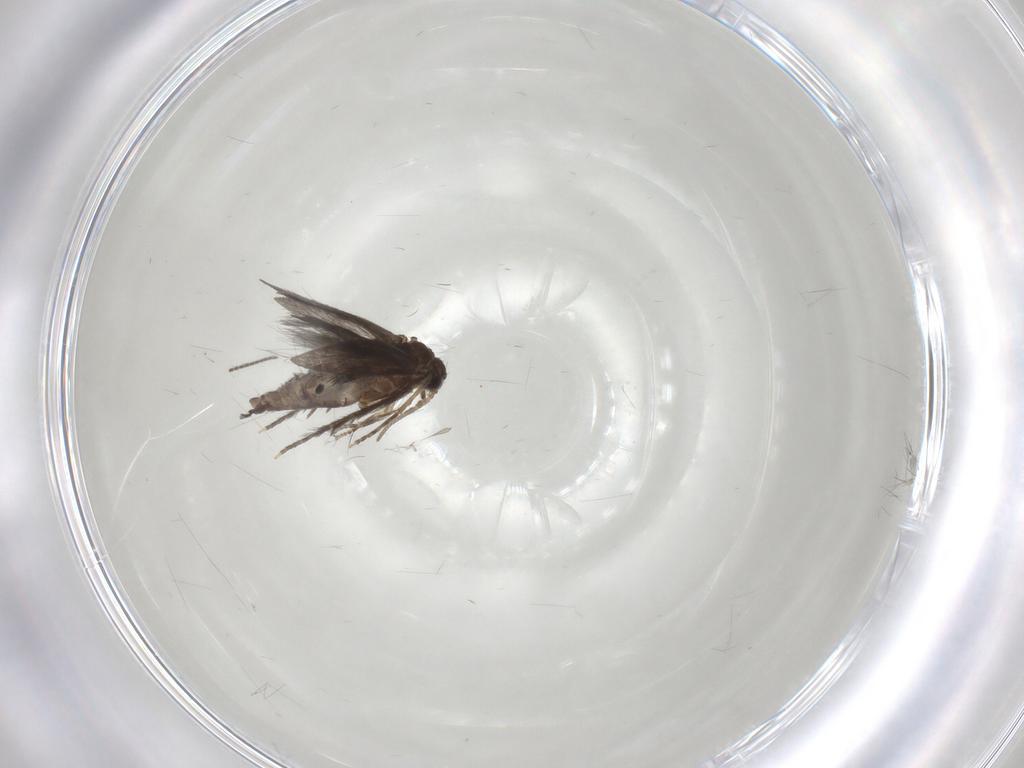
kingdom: Animalia
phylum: Arthropoda
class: Insecta
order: Trichoptera
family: Hydroptilidae
